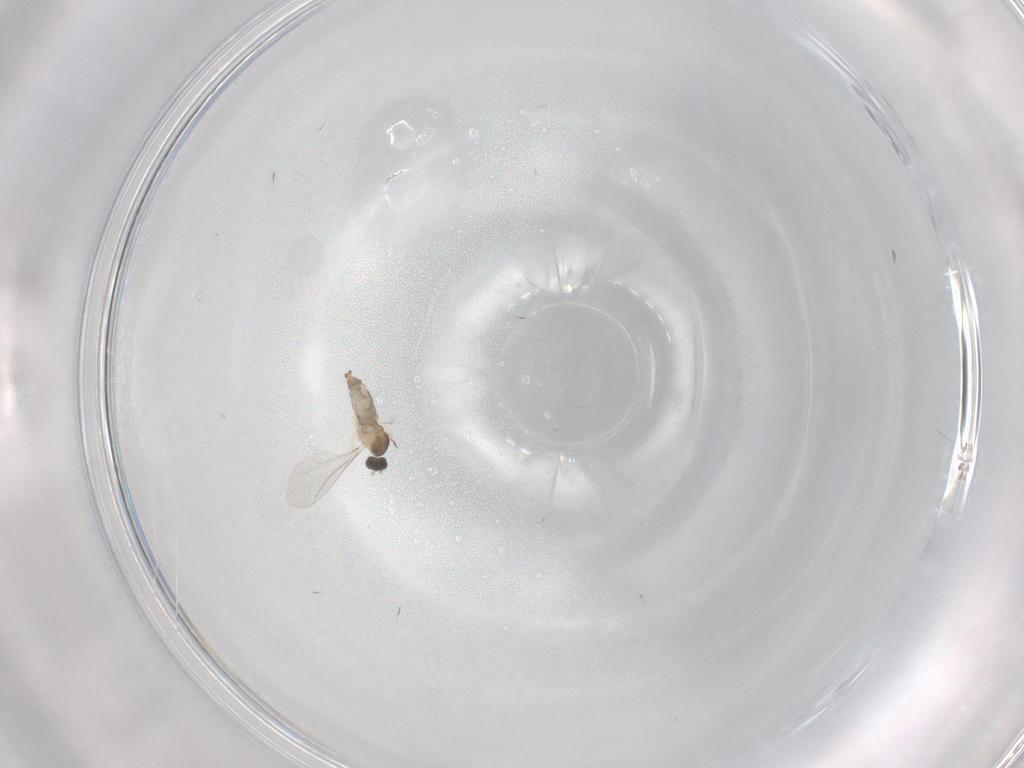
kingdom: Animalia
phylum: Arthropoda
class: Insecta
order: Diptera
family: Cecidomyiidae
